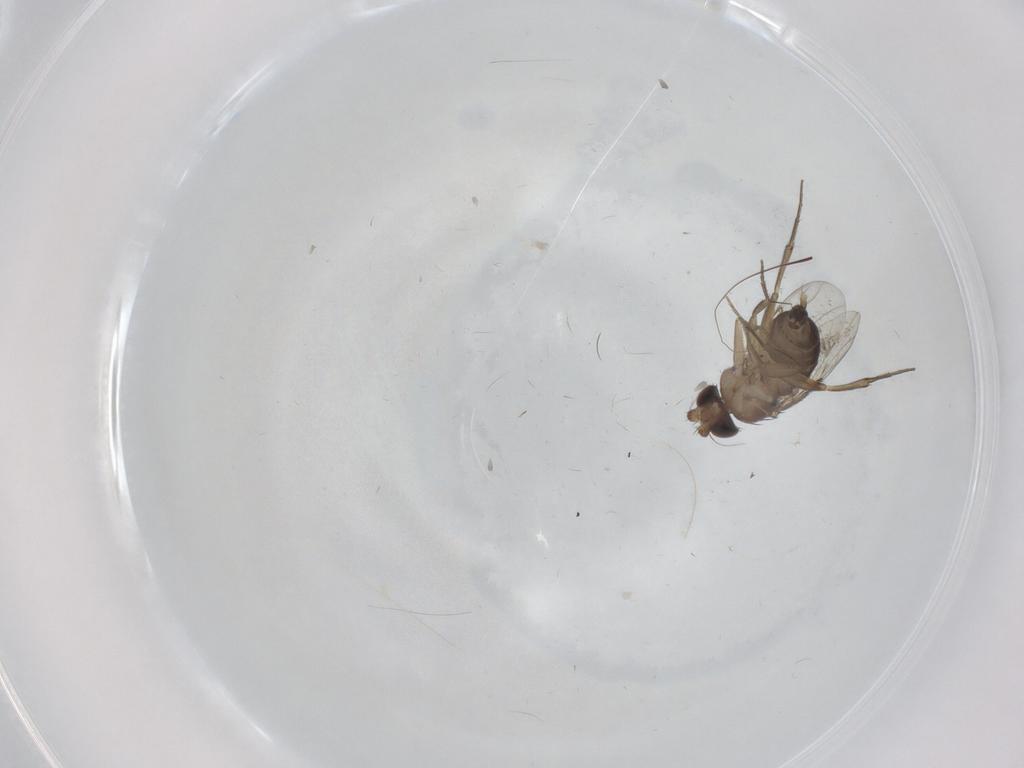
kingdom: Animalia
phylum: Arthropoda
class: Insecta
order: Diptera
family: Phoridae
